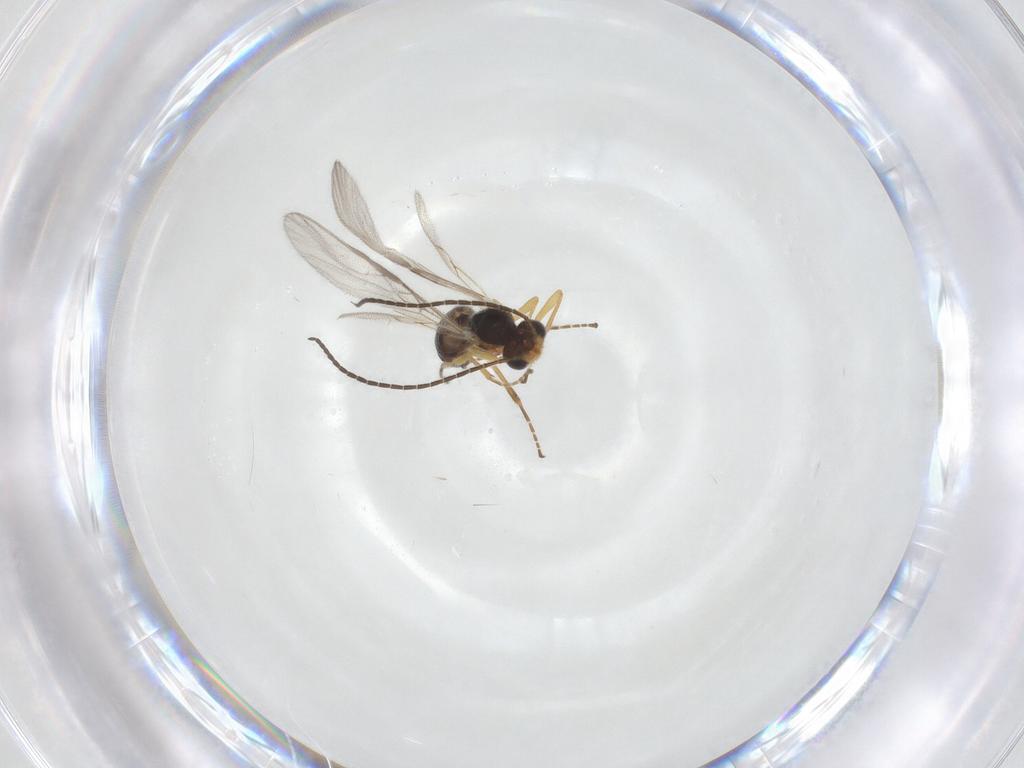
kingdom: Animalia
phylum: Arthropoda
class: Insecta
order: Hymenoptera
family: Braconidae
